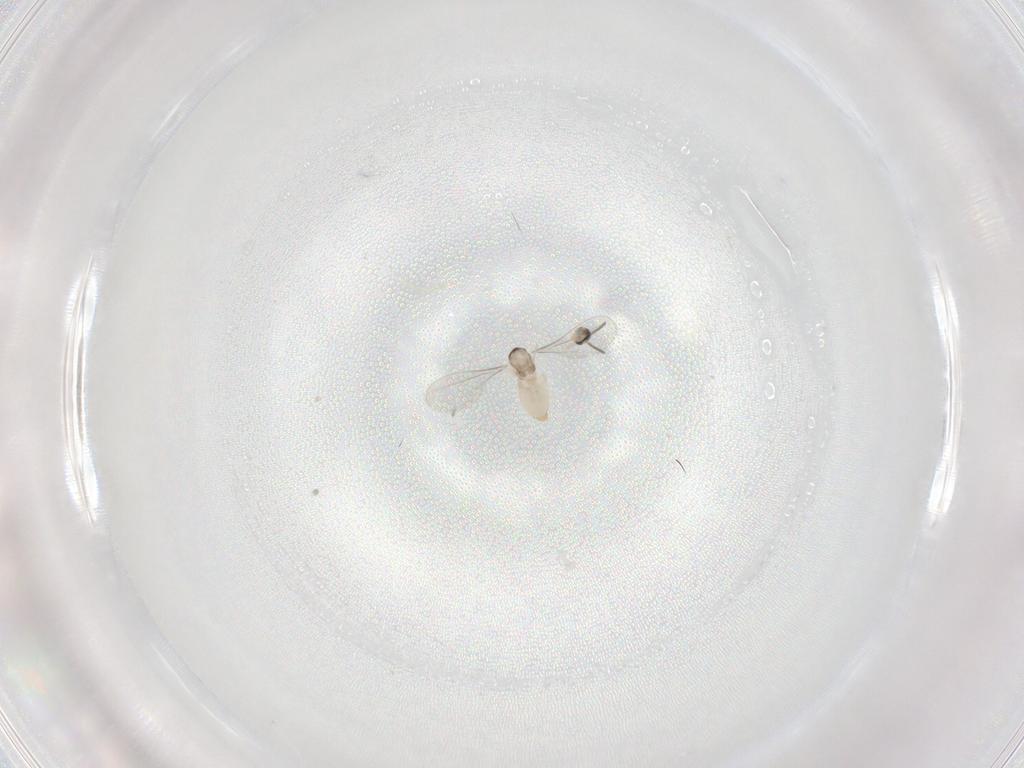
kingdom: Animalia
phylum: Arthropoda
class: Insecta
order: Diptera
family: Cecidomyiidae
